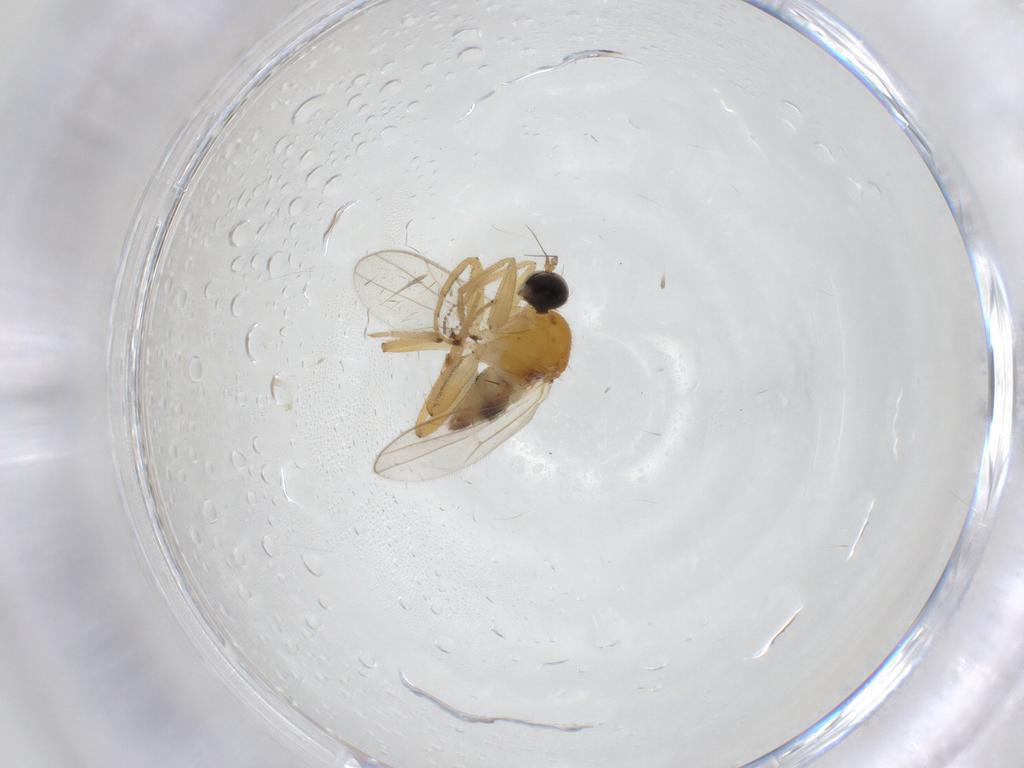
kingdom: Animalia
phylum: Arthropoda
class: Insecta
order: Diptera
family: Hybotidae
